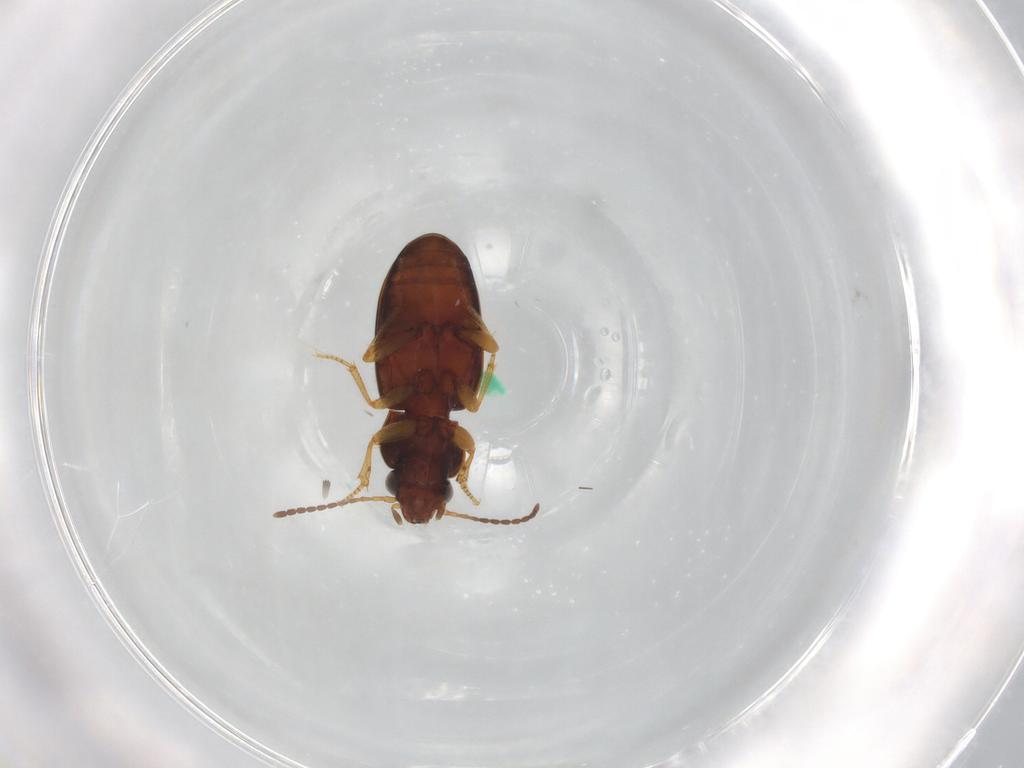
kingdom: Animalia
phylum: Arthropoda
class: Insecta
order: Coleoptera
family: Carabidae
